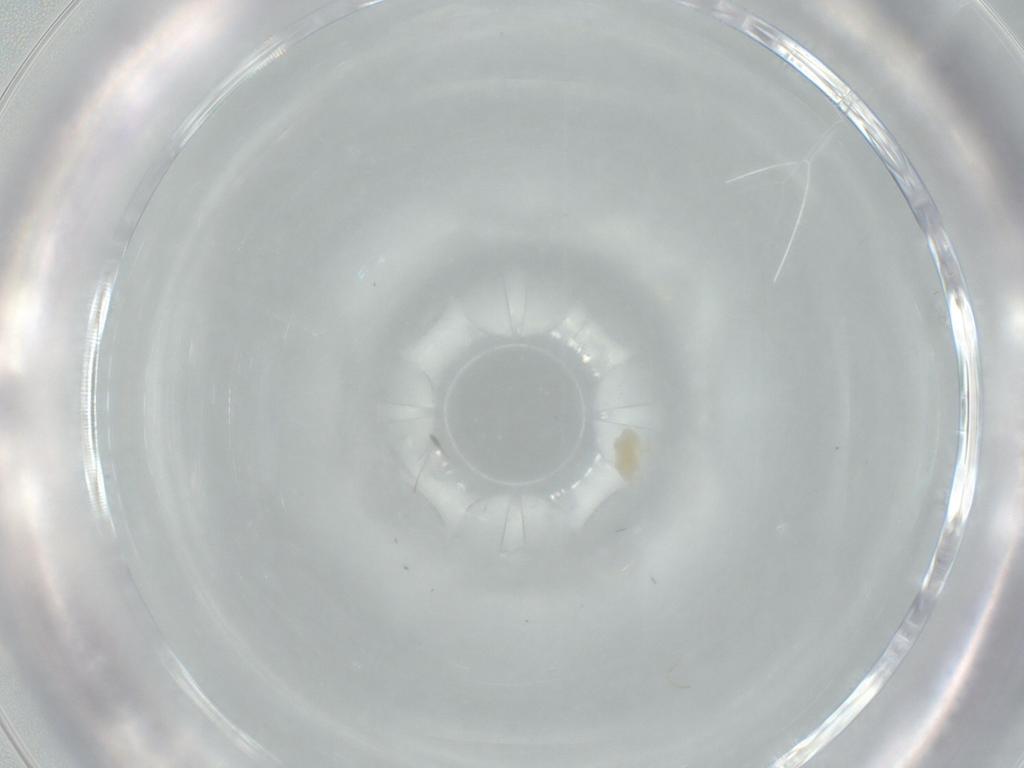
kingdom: Animalia
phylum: Arthropoda
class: Arachnida
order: Trombidiformes
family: Eupodidae
